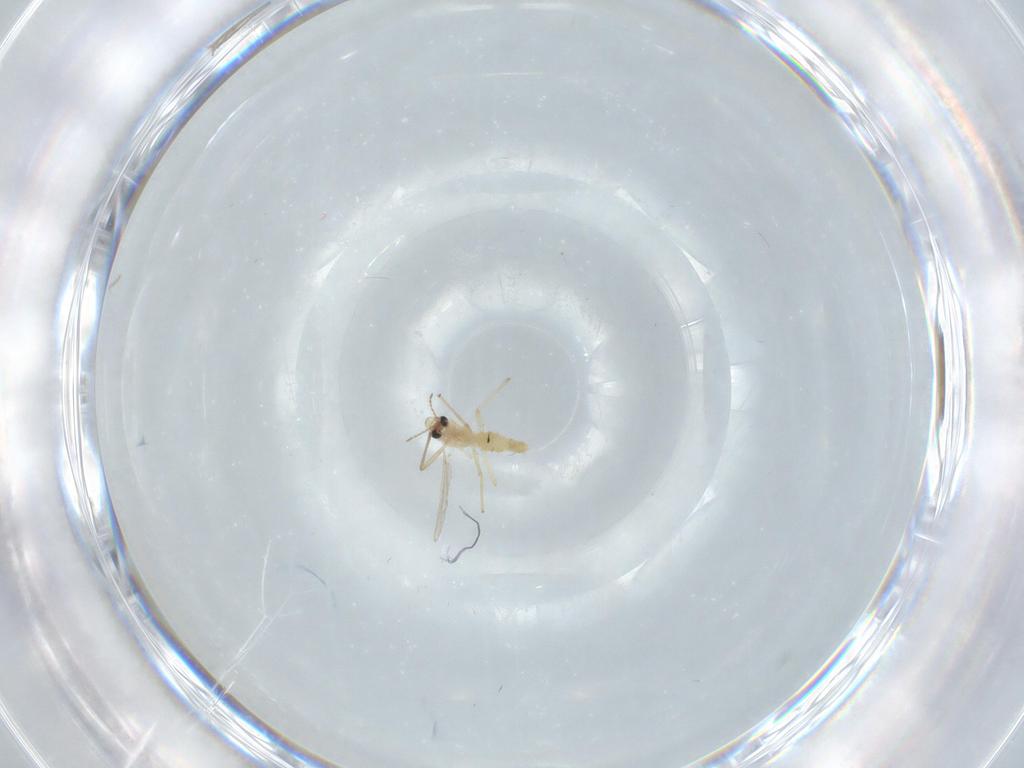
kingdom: Animalia
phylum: Arthropoda
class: Insecta
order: Diptera
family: Chironomidae
